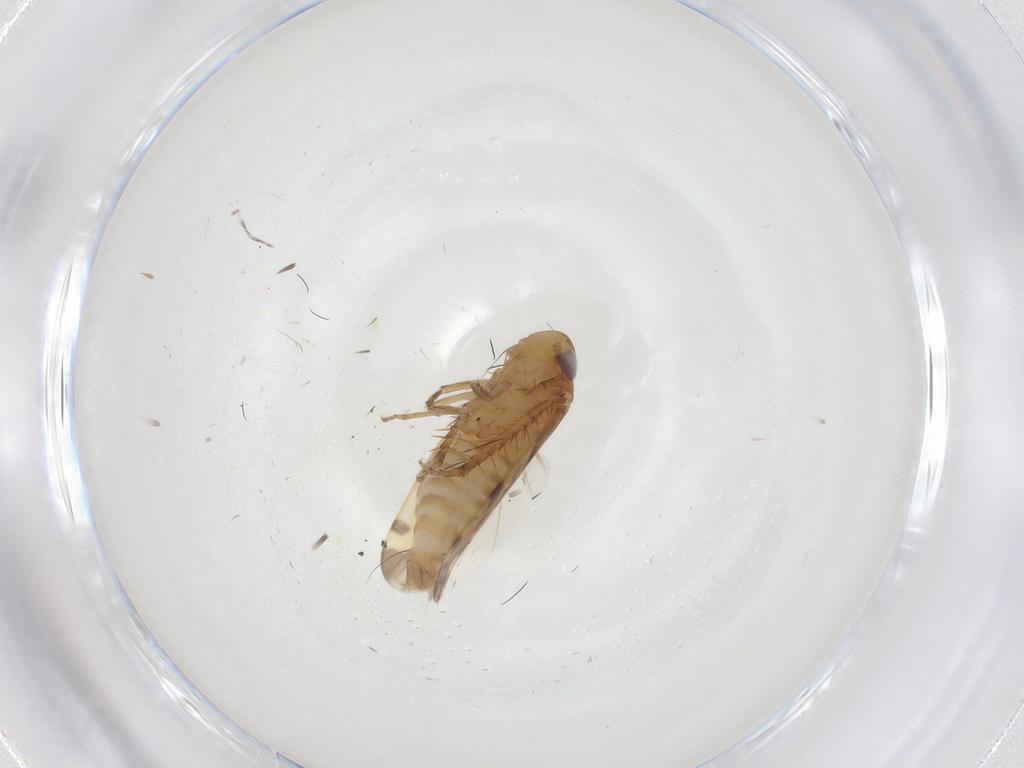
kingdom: Animalia
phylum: Arthropoda
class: Insecta
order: Hemiptera
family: Cicadellidae
